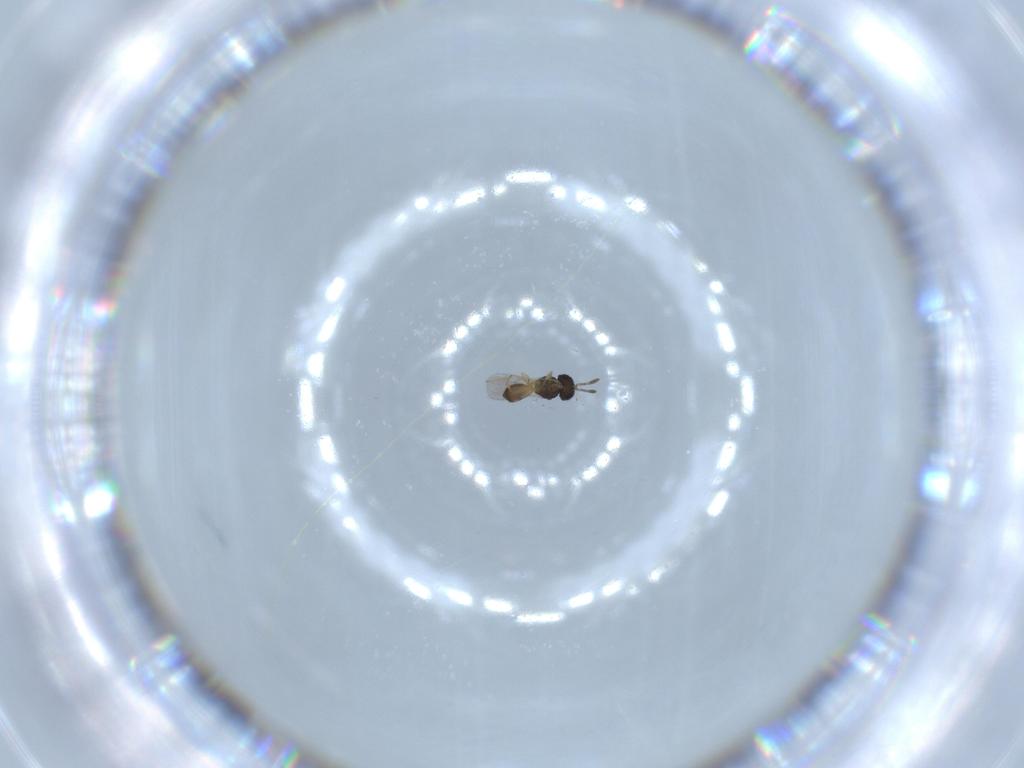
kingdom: Animalia
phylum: Arthropoda
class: Insecta
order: Hymenoptera
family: Scelionidae
